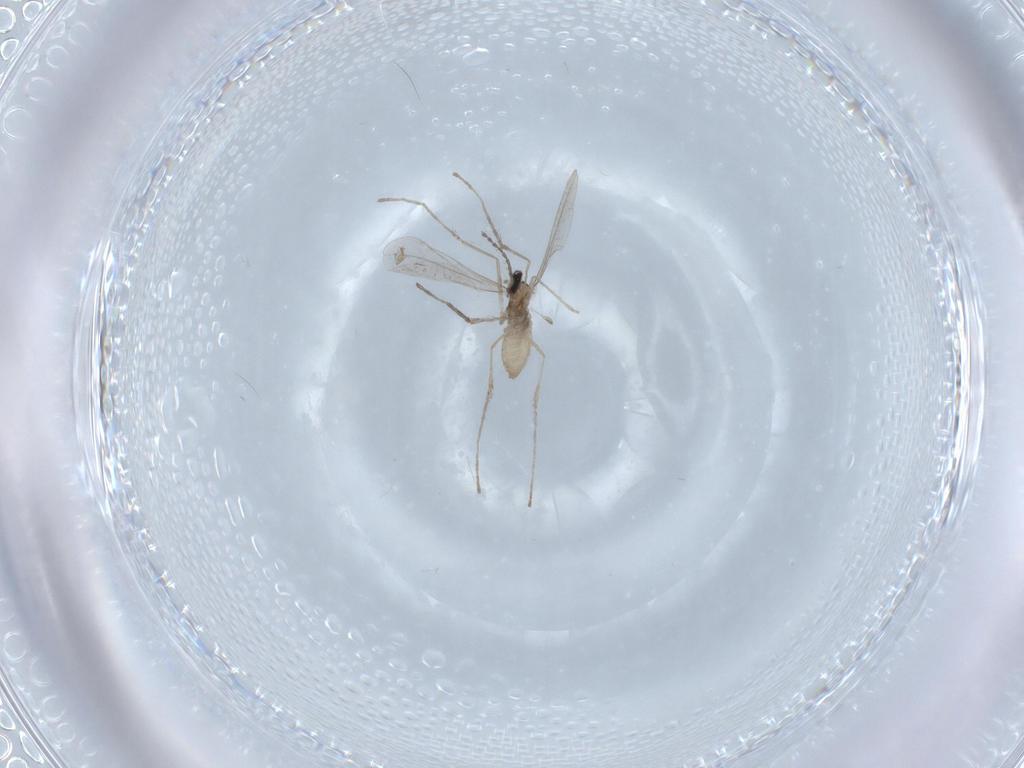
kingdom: Animalia
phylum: Arthropoda
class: Insecta
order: Diptera
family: Cecidomyiidae
